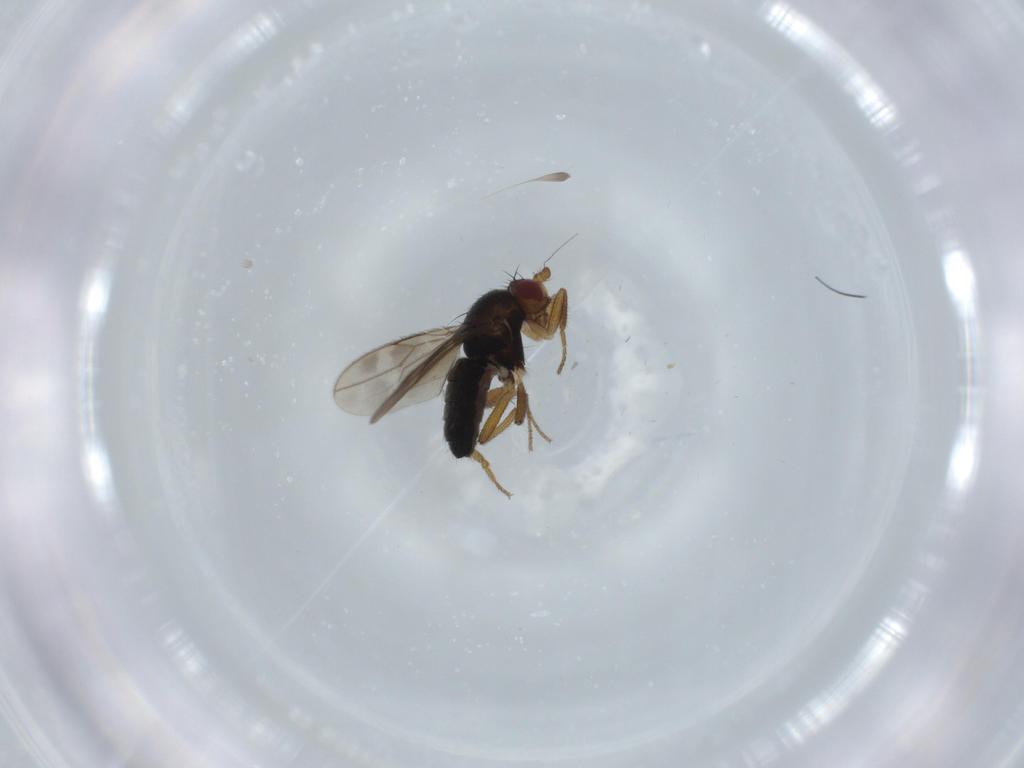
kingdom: Animalia
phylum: Arthropoda
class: Insecta
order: Diptera
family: Sphaeroceridae
